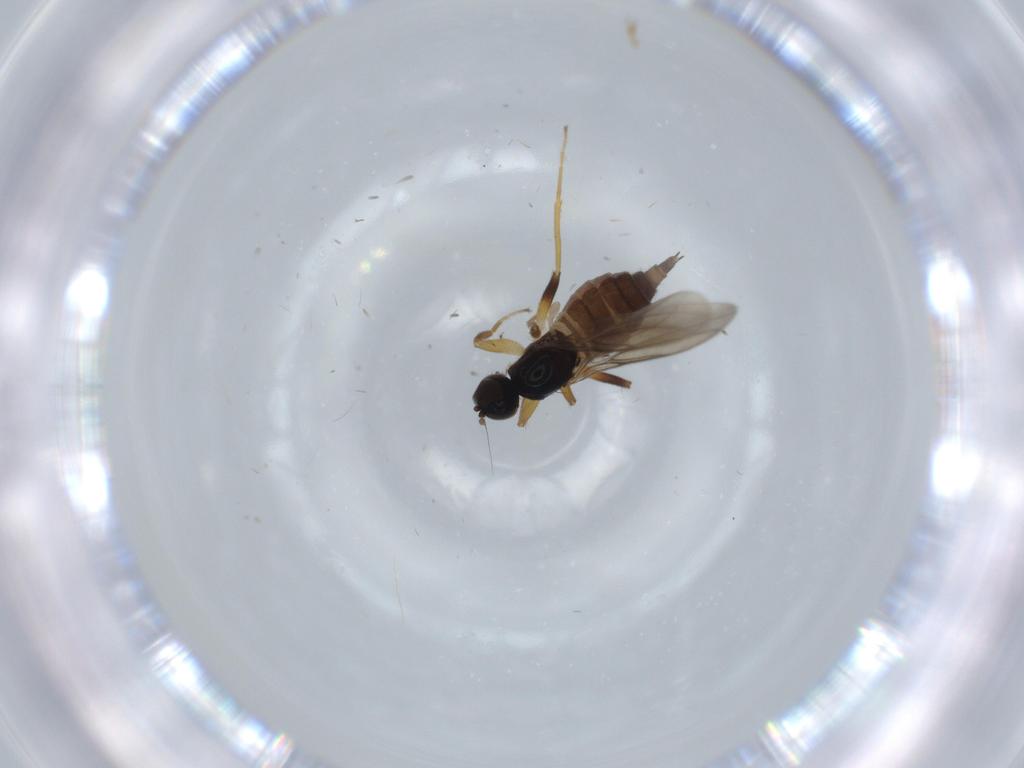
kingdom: Animalia
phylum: Arthropoda
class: Insecta
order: Diptera
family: Hybotidae
